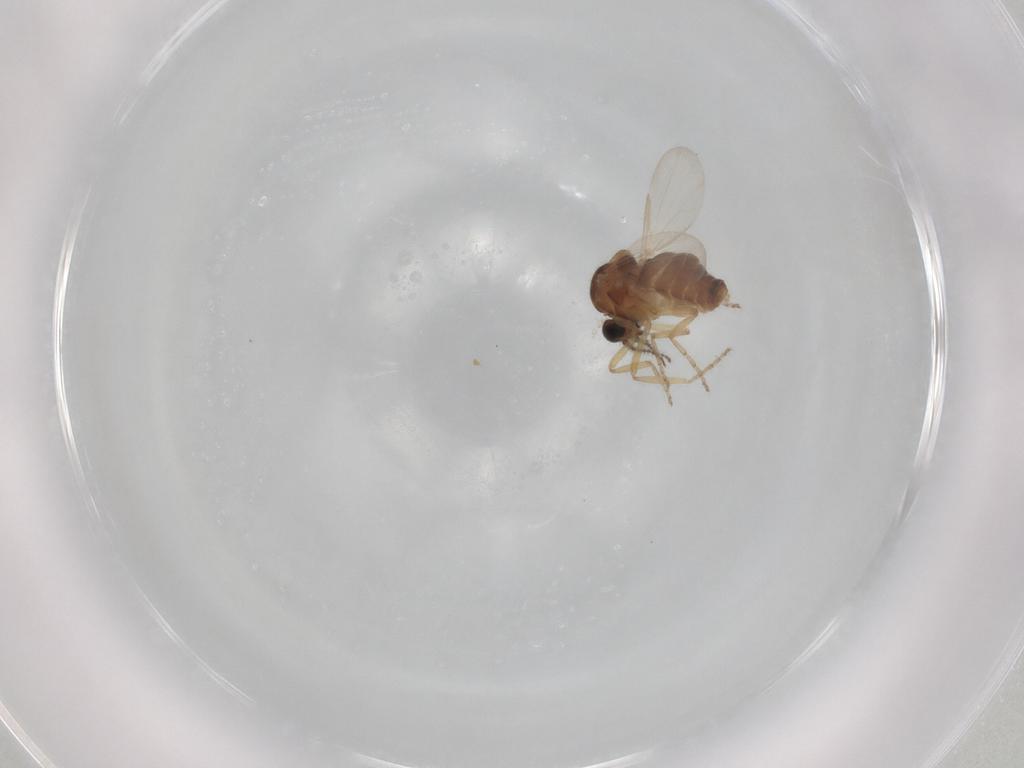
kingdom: Animalia
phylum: Arthropoda
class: Insecta
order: Diptera
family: Ceratopogonidae
